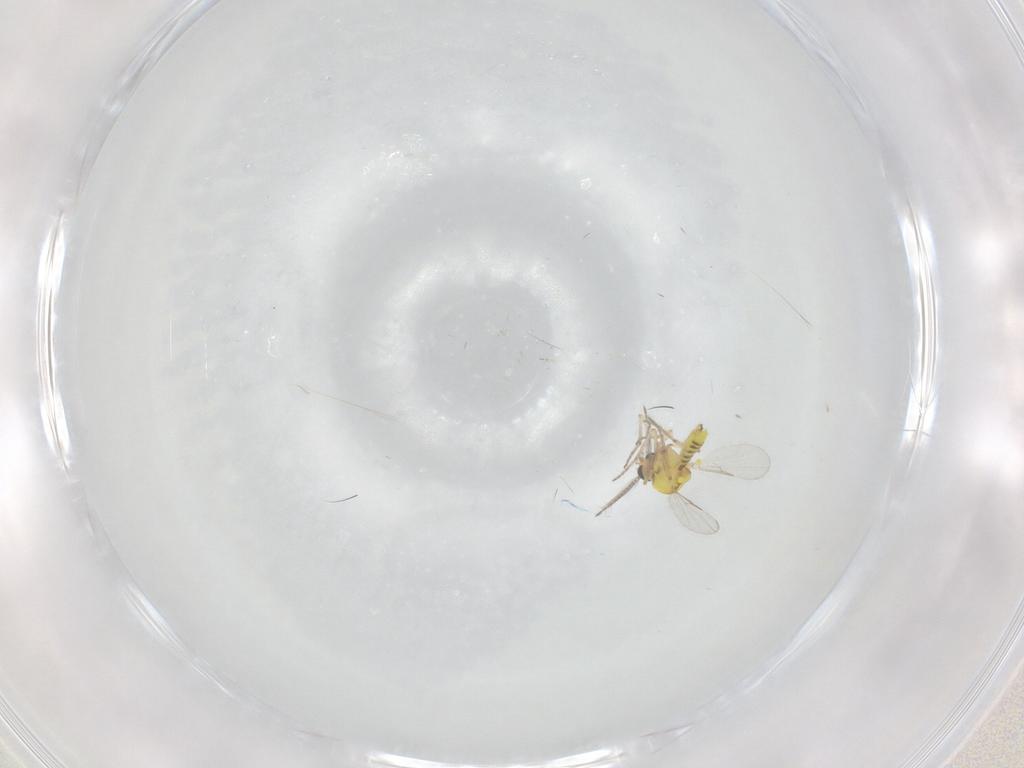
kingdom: Animalia
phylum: Arthropoda
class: Insecta
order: Diptera
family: Ceratopogonidae
